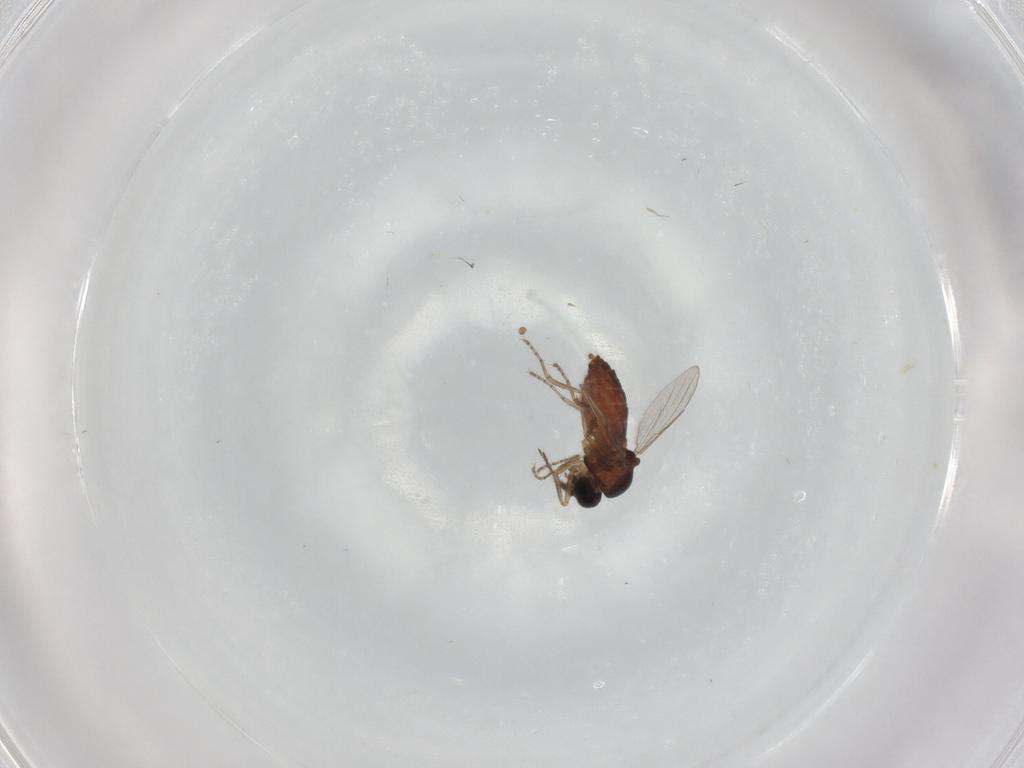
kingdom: Animalia
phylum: Arthropoda
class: Insecta
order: Diptera
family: Ceratopogonidae
